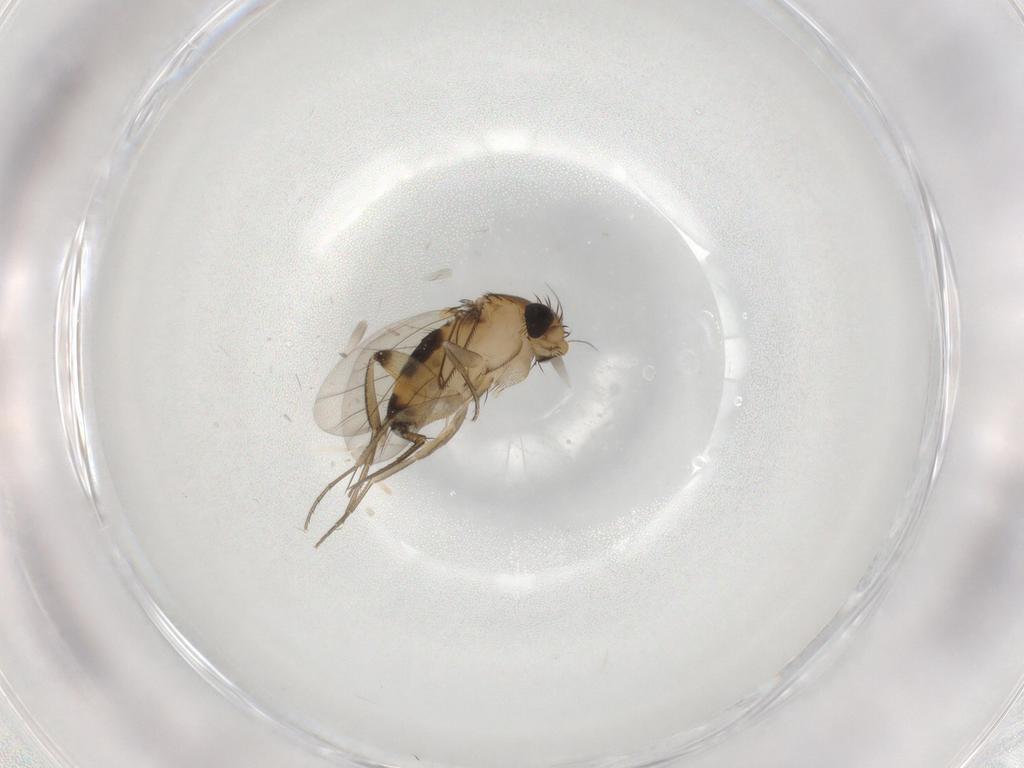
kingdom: Animalia
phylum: Arthropoda
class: Insecta
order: Diptera
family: Phoridae
